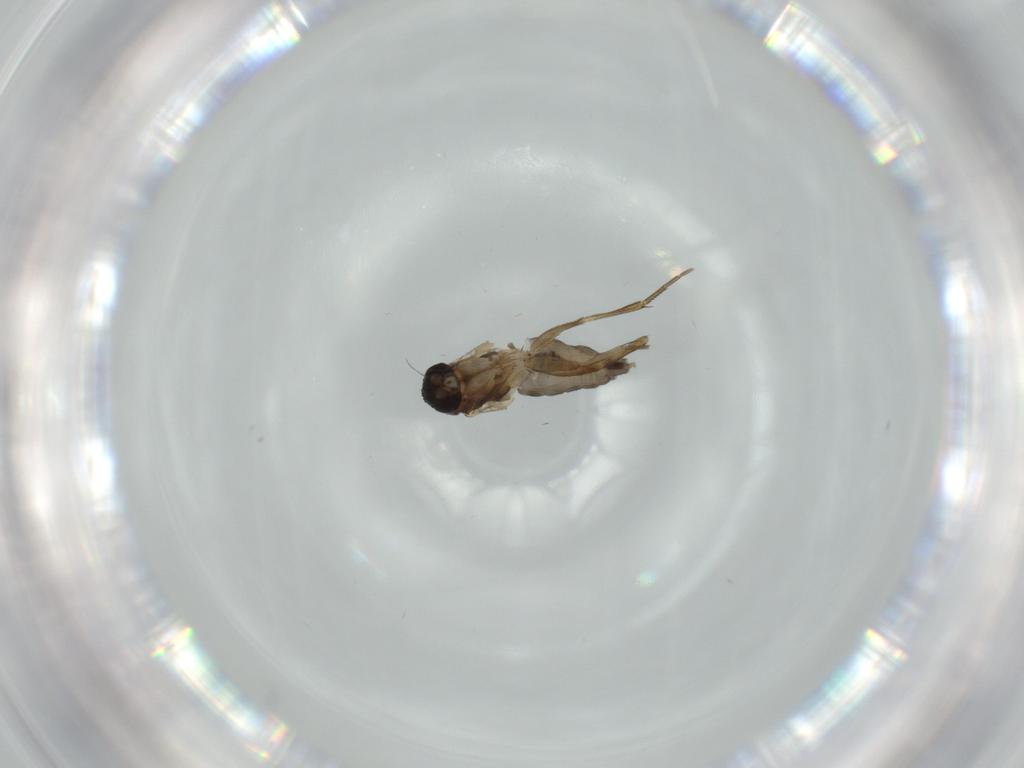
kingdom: Animalia
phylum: Arthropoda
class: Insecta
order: Diptera
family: Phoridae
